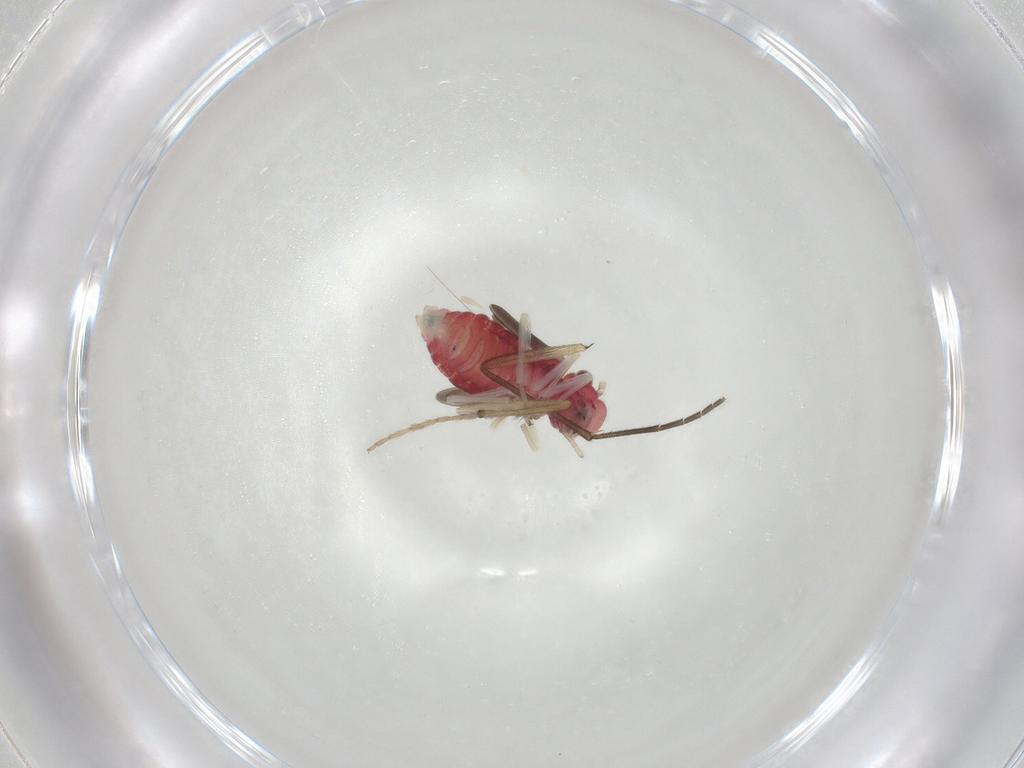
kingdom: Animalia
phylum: Arthropoda
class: Insecta
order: Psocodea
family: Caeciliusidae
